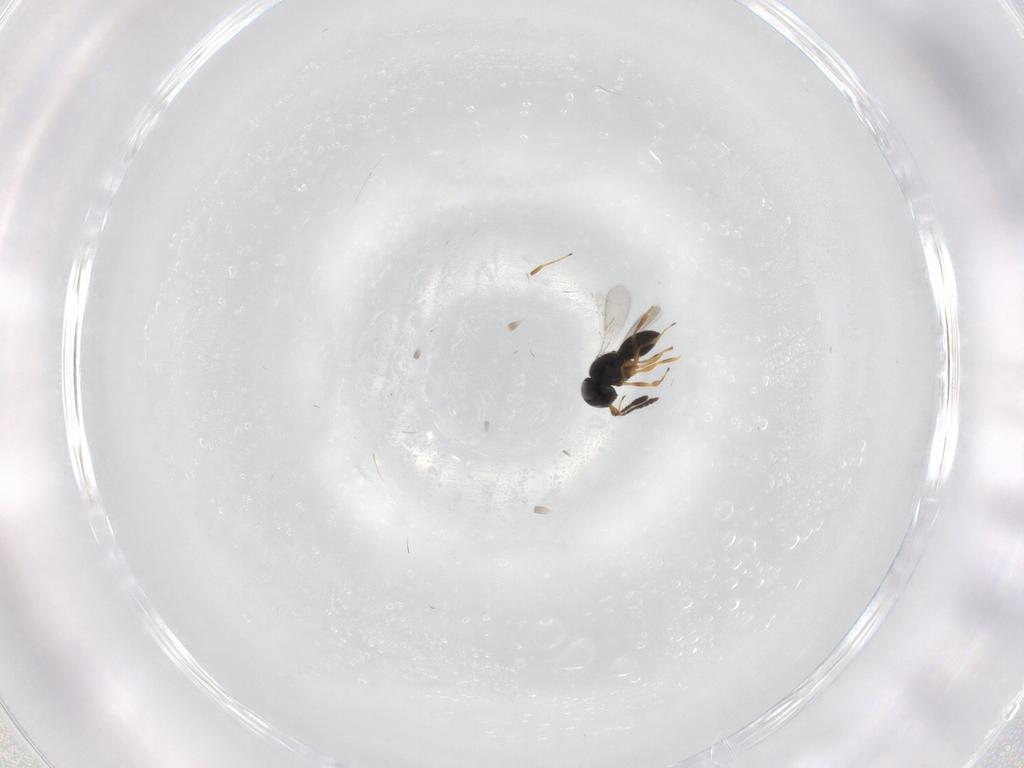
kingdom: Animalia
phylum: Arthropoda
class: Insecta
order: Hymenoptera
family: Scelionidae
